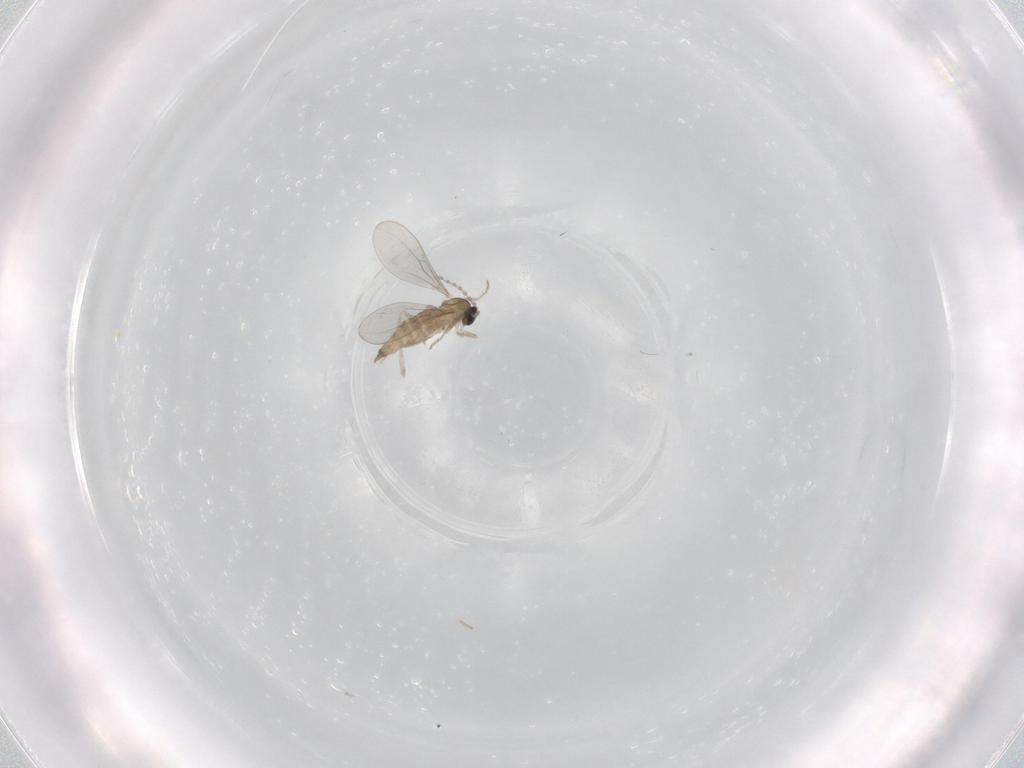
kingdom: Animalia
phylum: Arthropoda
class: Insecta
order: Diptera
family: Cecidomyiidae
